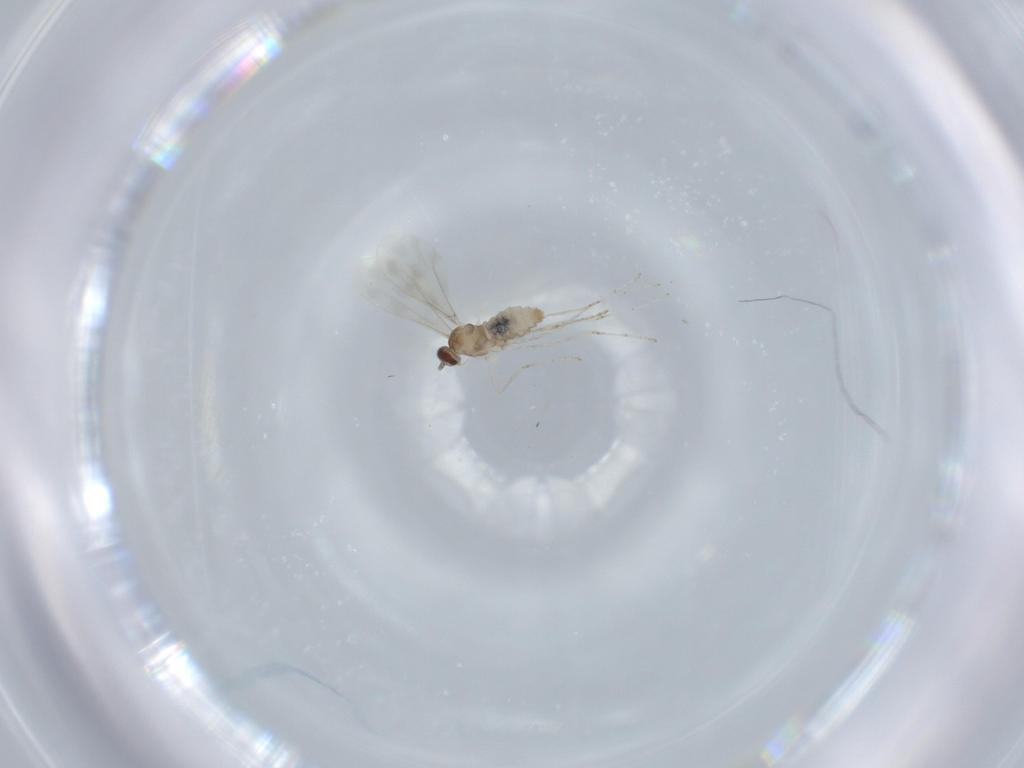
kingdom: Animalia
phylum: Arthropoda
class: Insecta
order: Diptera
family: Cecidomyiidae
